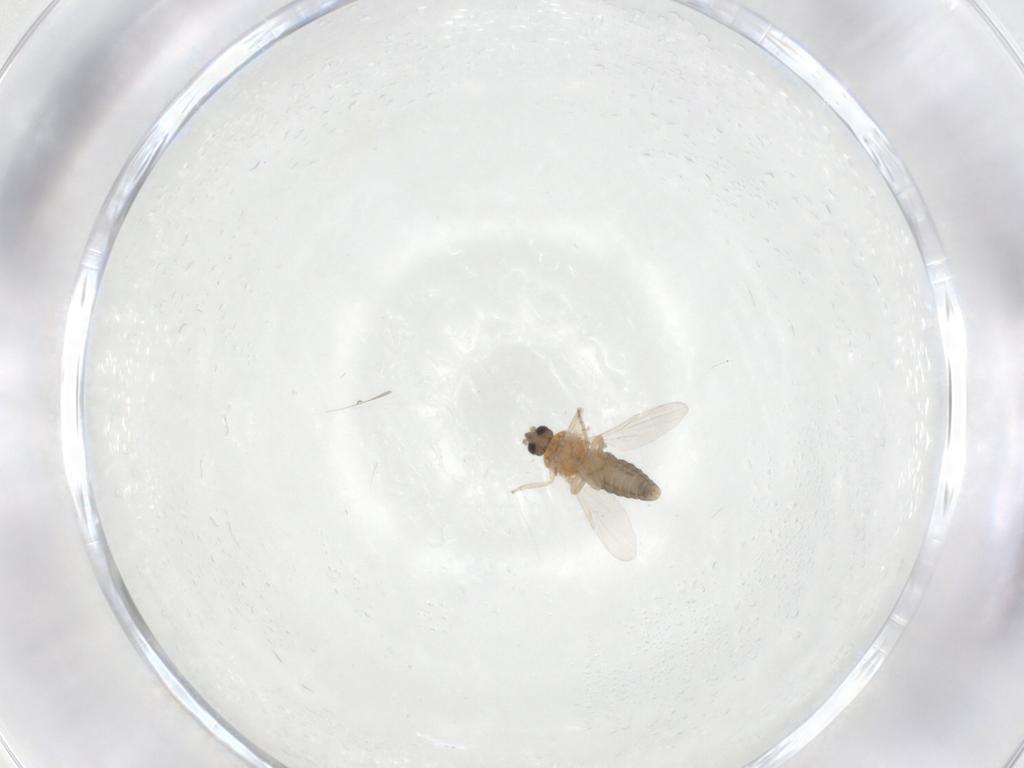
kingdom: Animalia
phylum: Arthropoda
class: Insecta
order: Diptera
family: Ceratopogonidae
